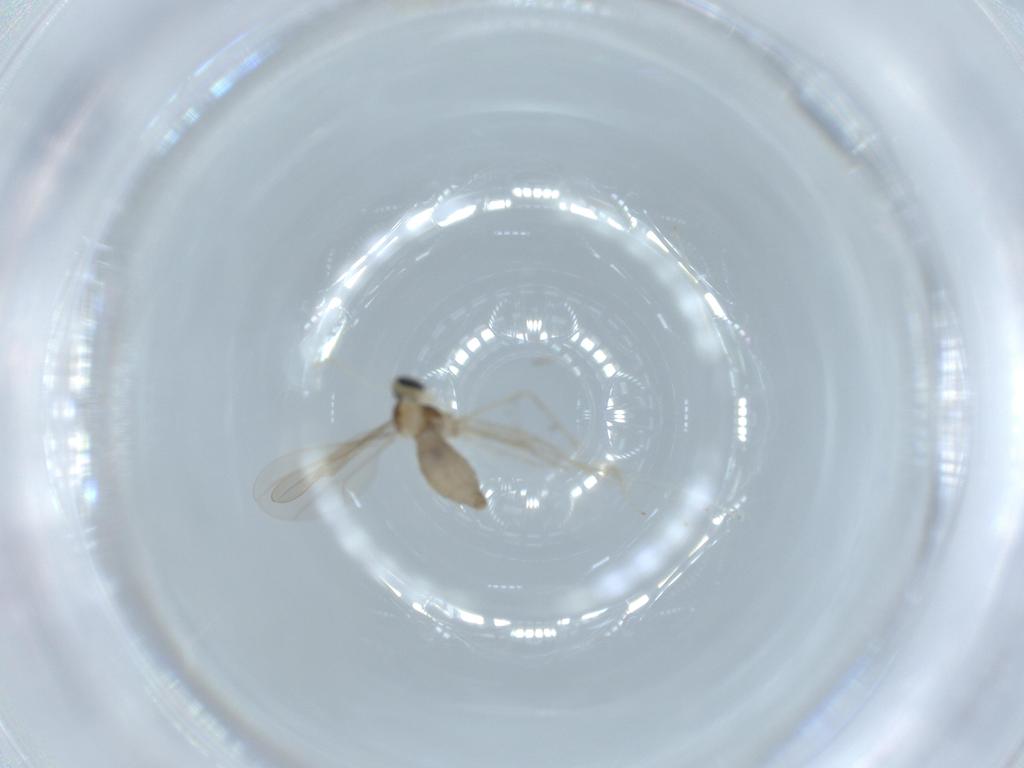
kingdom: Animalia
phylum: Arthropoda
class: Insecta
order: Diptera
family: Cecidomyiidae
